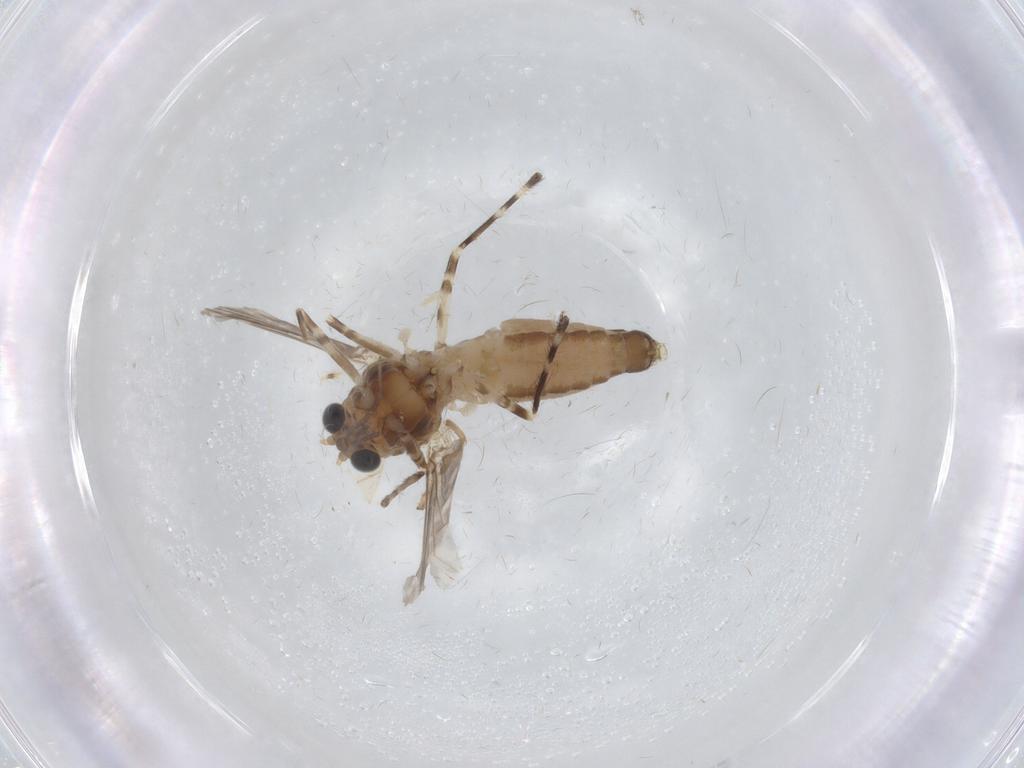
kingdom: Animalia
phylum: Arthropoda
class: Insecta
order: Diptera
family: Chironomidae
